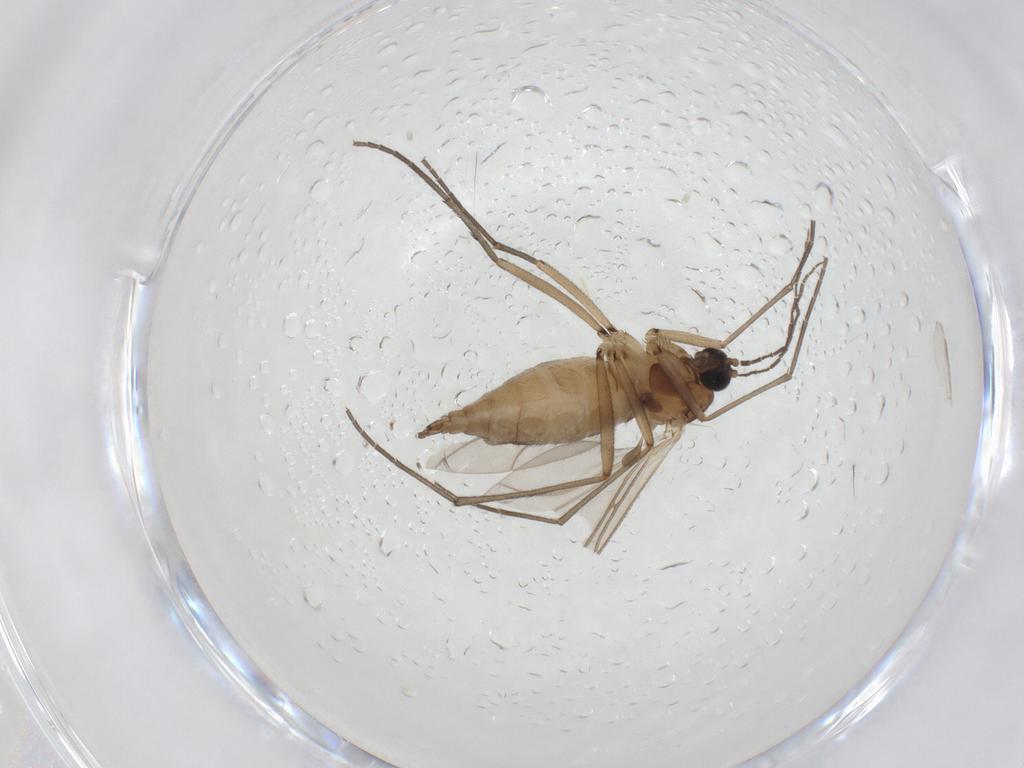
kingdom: Animalia
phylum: Arthropoda
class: Insecta
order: Diptera
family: Sciaridae
